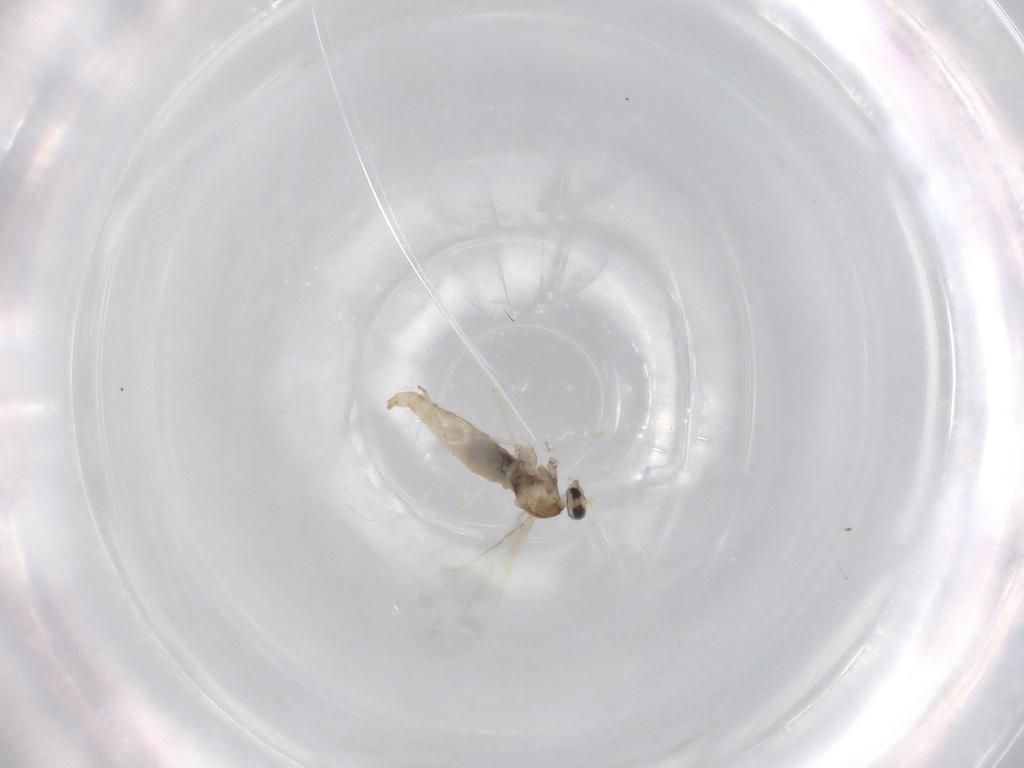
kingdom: Animalia
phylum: Arthropoda
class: Insecta
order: Diptera
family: Cecidomyiidae
